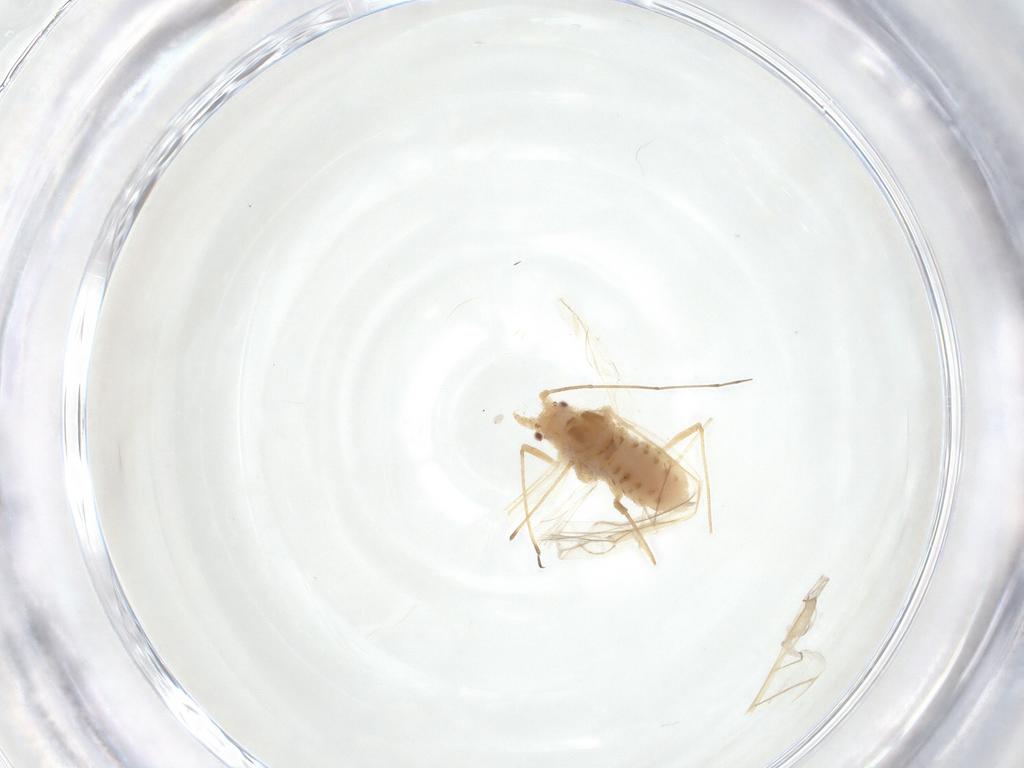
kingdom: Animalia
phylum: Arthropoda
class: Insecta
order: Hemiptera
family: Aphididae
